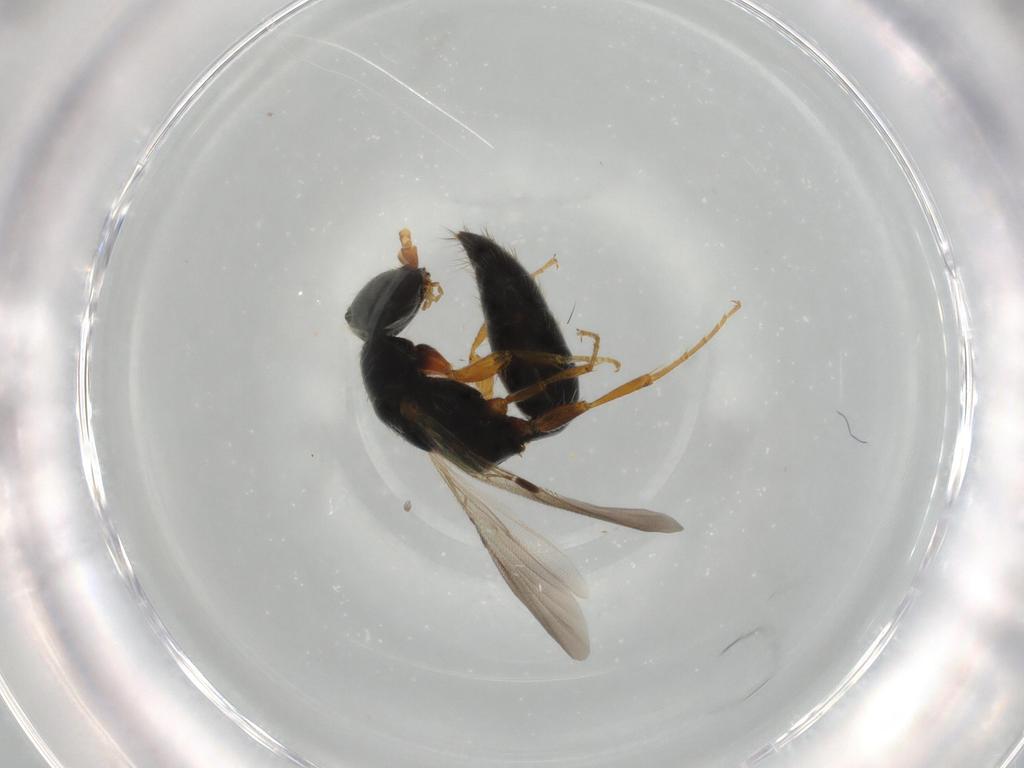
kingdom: Animalia
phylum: Arthropoda
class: Insecta
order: Hymenoptera
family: Bethylidae
